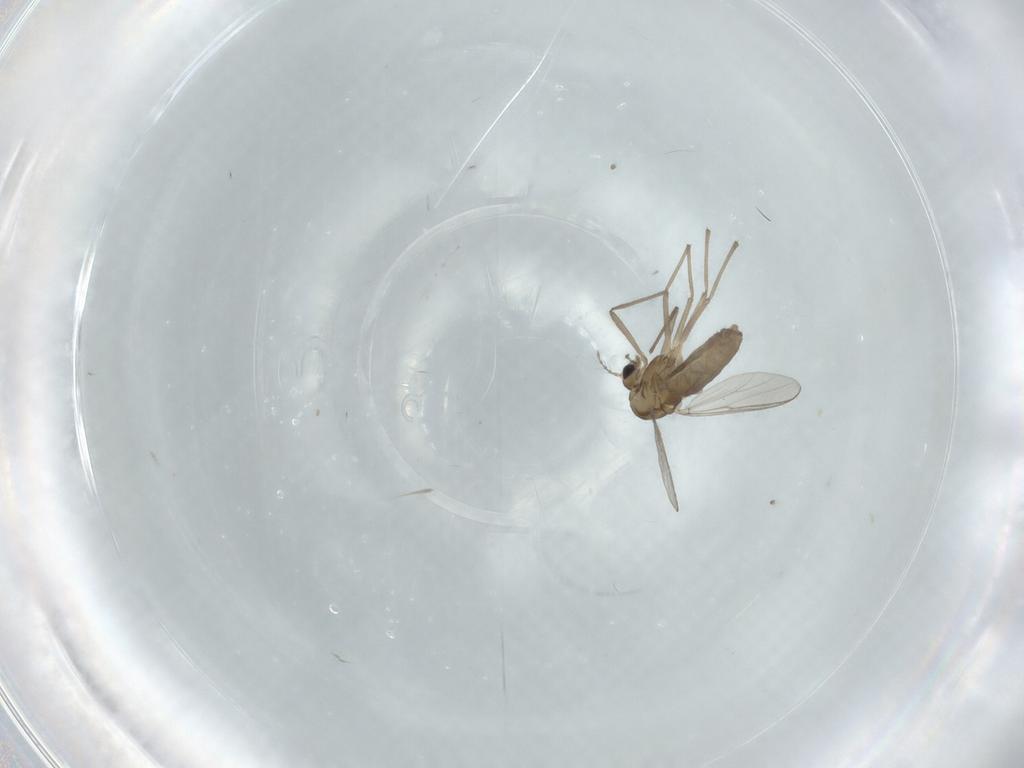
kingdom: Animalia
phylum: Arthropoda
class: Insecta
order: Diptera
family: Chironomidae
